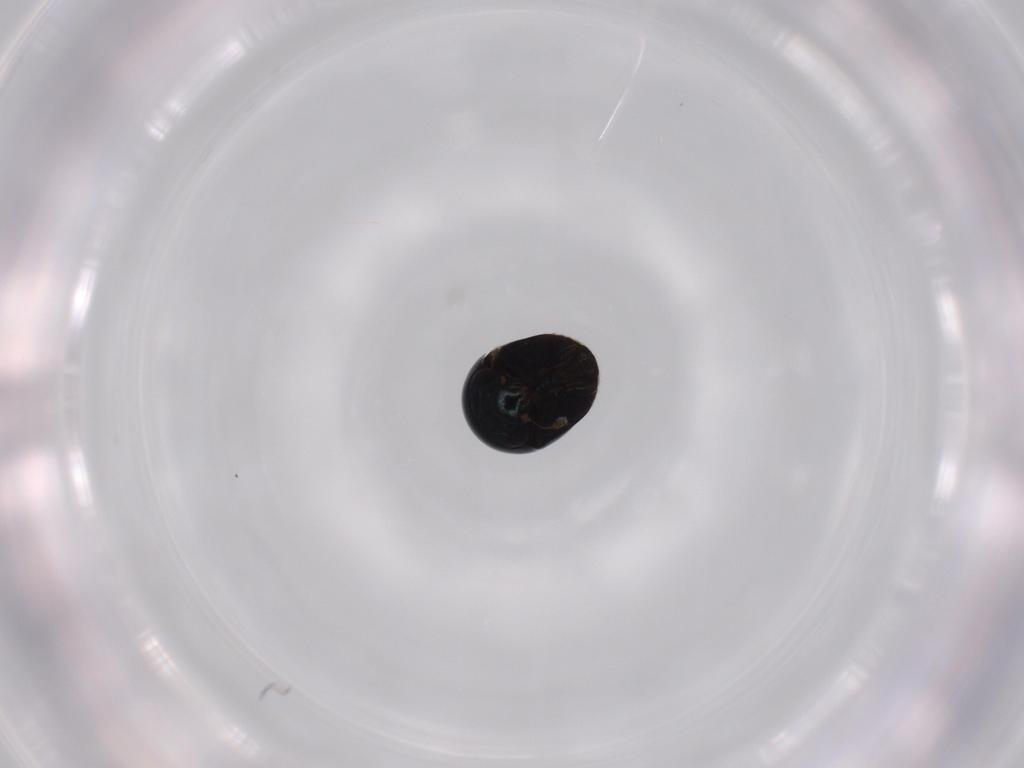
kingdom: Animalia
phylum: Arthropoda
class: Insecta
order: Coleoptera
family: Cybocephalidae
